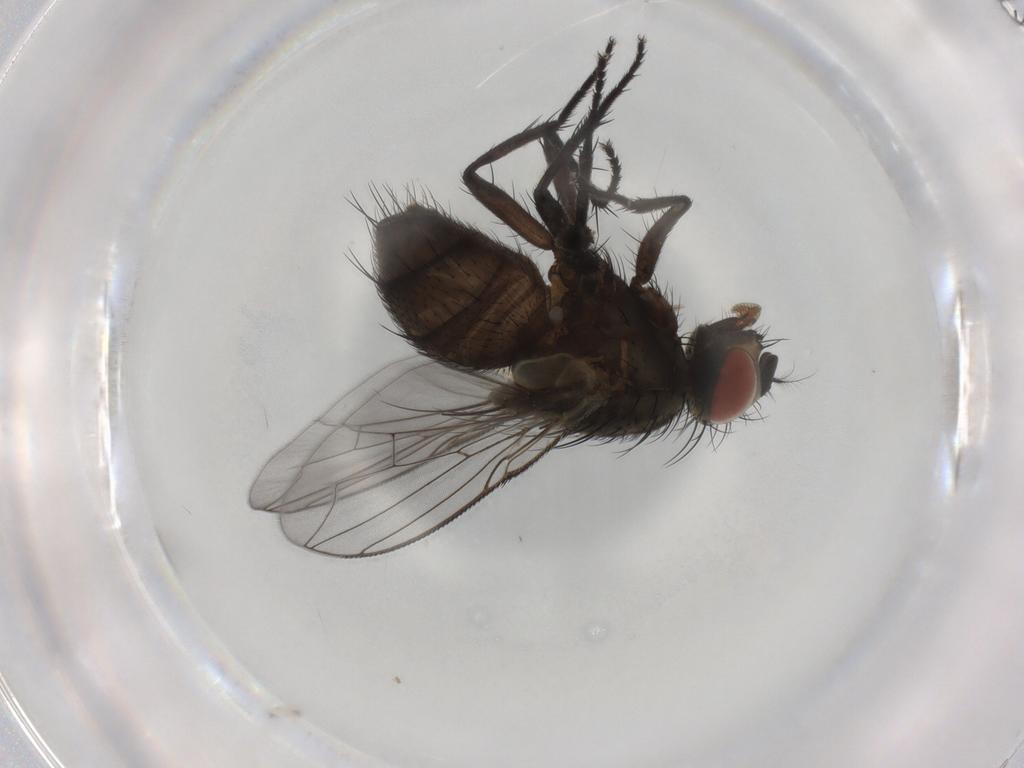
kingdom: Animalia
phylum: Arthropoda
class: Insecta
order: Diptera
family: Sarcophagidae
